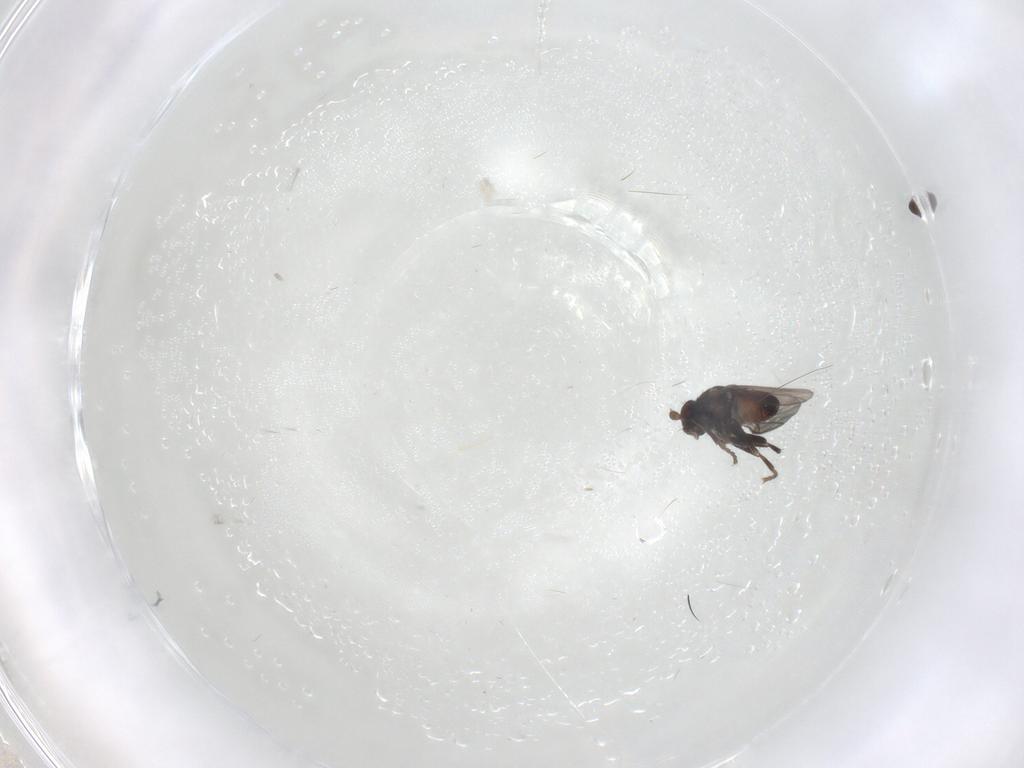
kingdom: Animalia
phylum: Arthropoda
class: Insecta
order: Diptera
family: Sphaeroceridae
